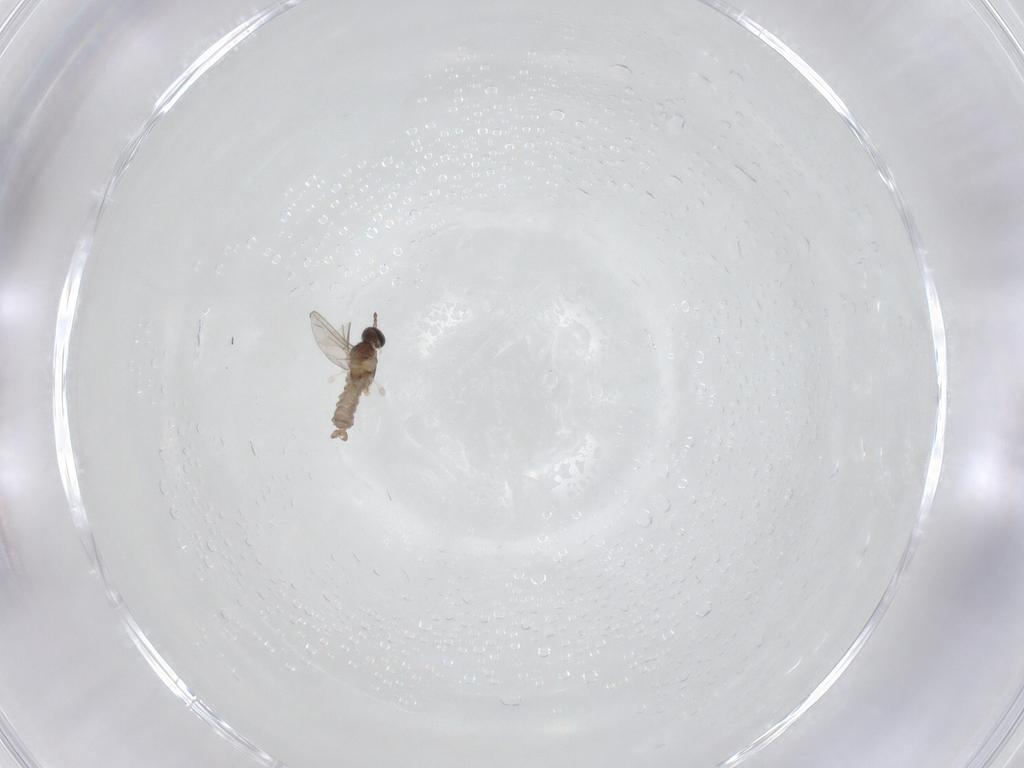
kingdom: Animalia
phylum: Arthropoda
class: Insecta
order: Diptera
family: Cecidomyiidae
